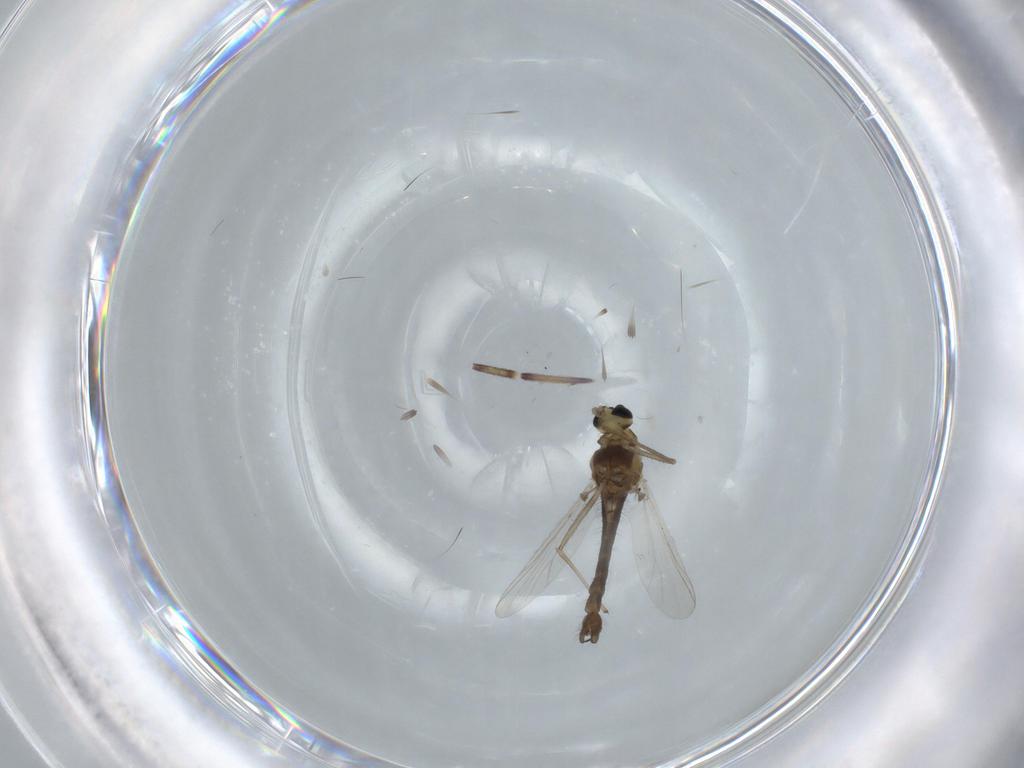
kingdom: Animalia
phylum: Arthropoda
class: Insecta
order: Diptera
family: Chironomidae
